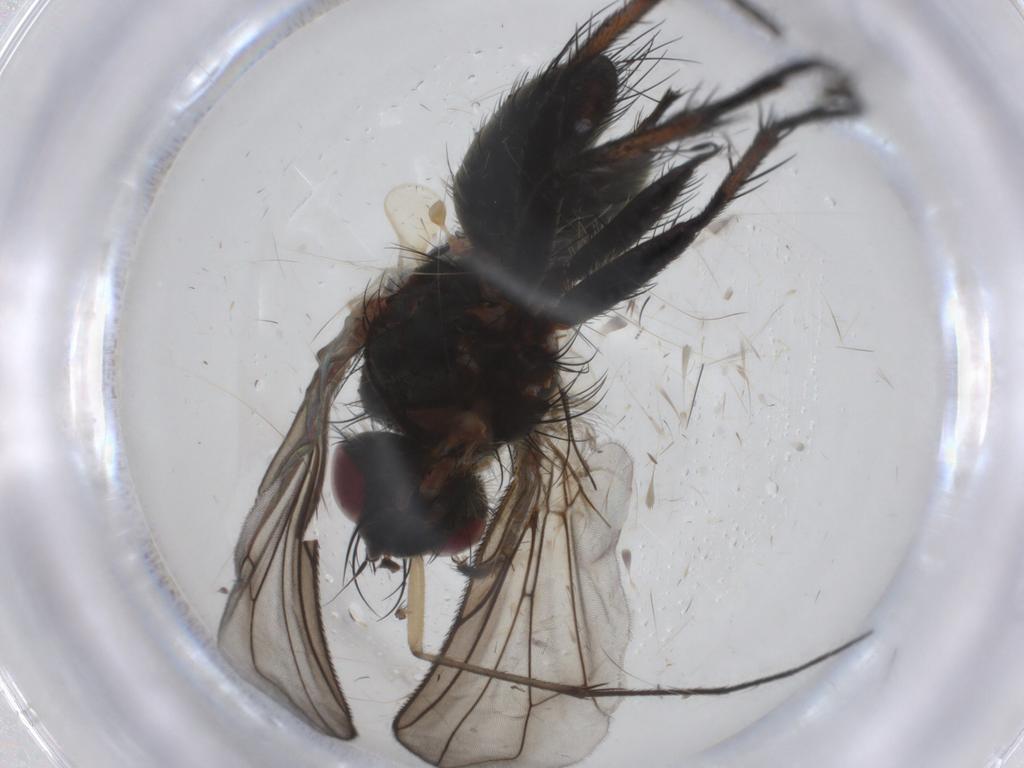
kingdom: Animalia
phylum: Arthropoda
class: Insecta
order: Diptera
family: Tachinidae
